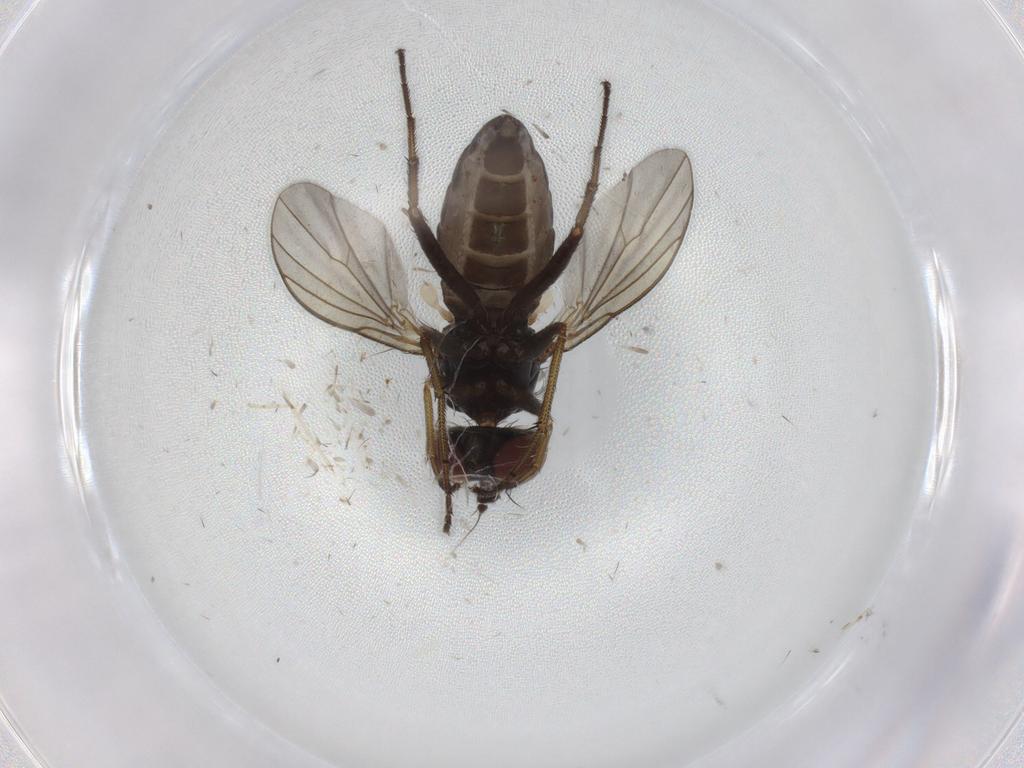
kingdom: Animalia
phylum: Arthropoda
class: Insecta
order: Diptera
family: Dolichopodidae
